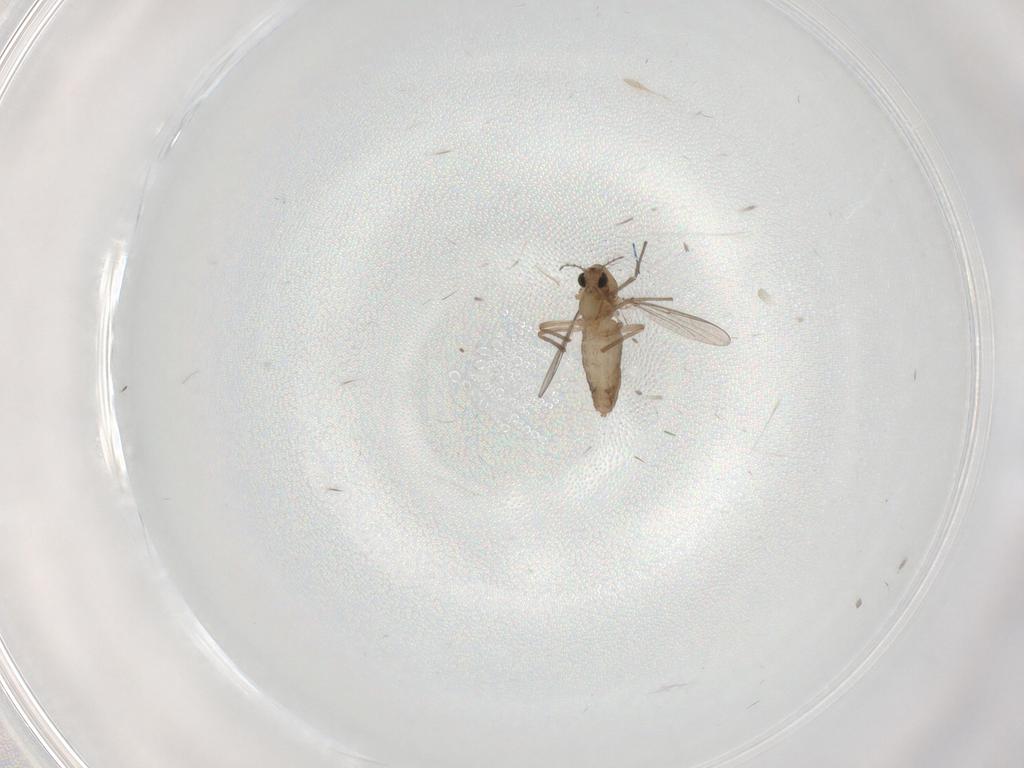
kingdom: Animalia
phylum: Arthropoda
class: Insecta
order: Diptera
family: Chironomidae
